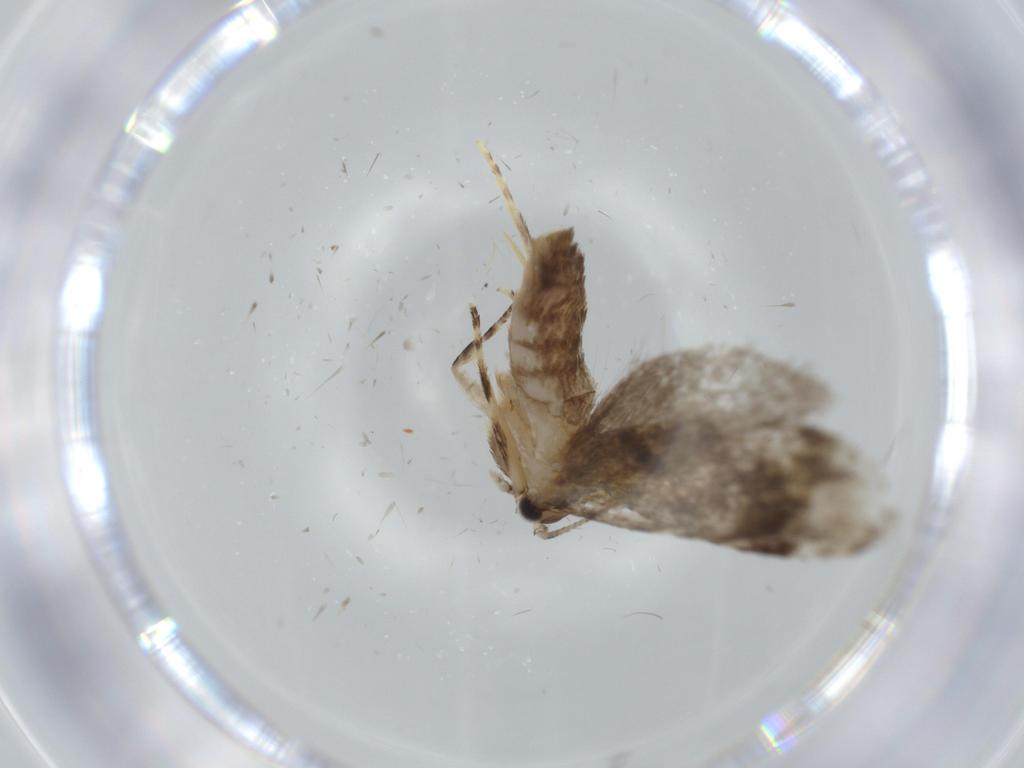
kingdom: Animalia
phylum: Arthropoda
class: Insecta
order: Lepidoptera
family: Tineidae
